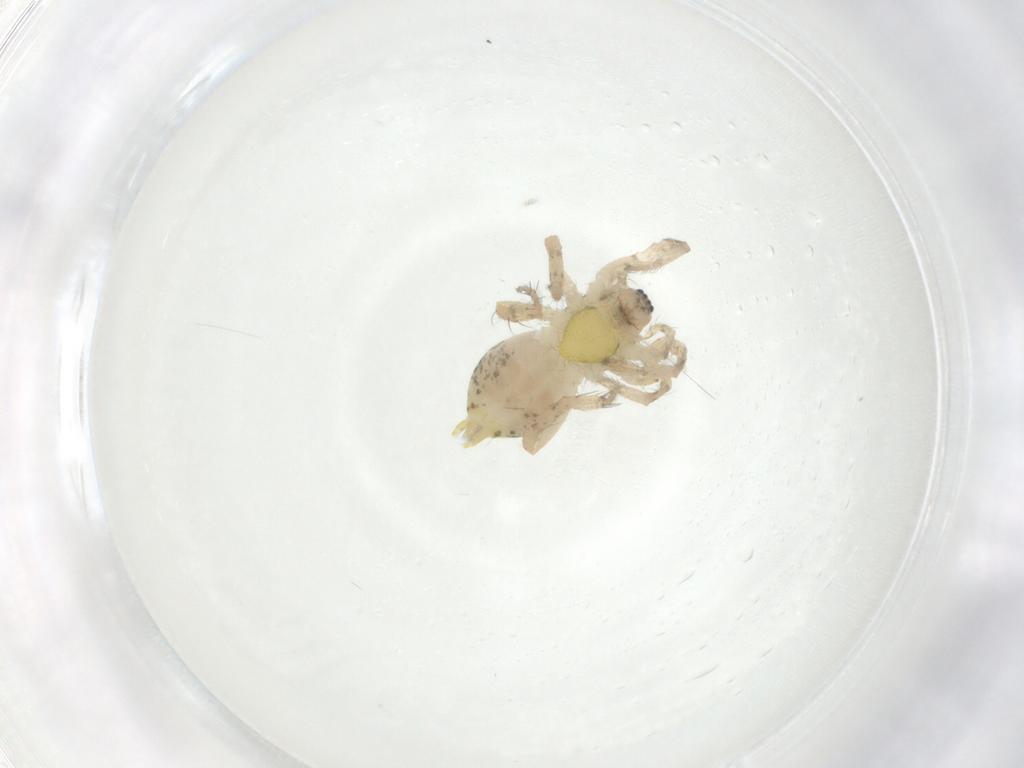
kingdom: Animalia
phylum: Arthropoda
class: Arachnida
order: Araneae
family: Anyphaenidae
